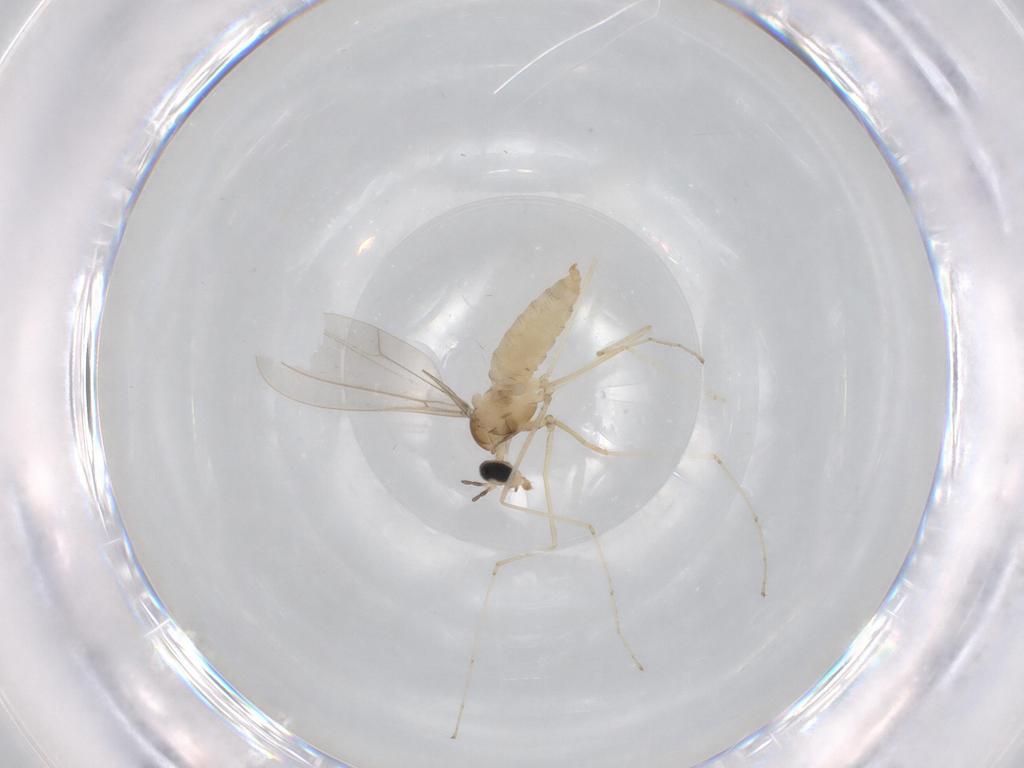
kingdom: Animalia
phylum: Arthropoda
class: Insecta
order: Diptera
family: Cecidomyiidae
